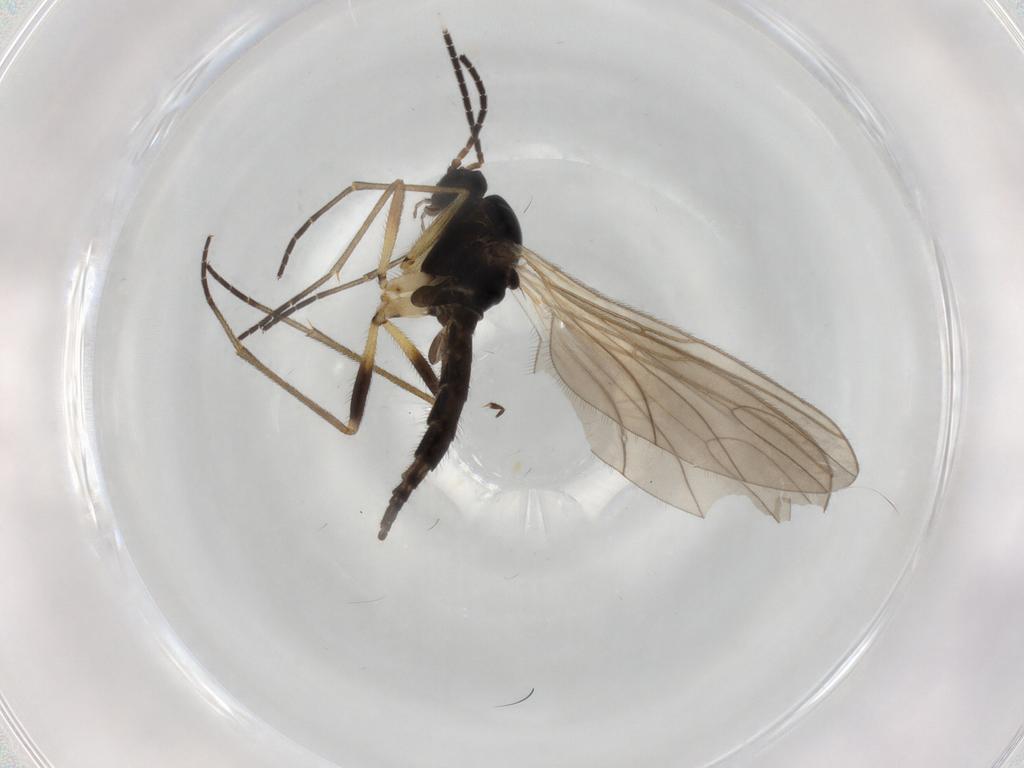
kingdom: Animalia
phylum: Arthropoda
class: Insecta
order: Diptera
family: Sciaridae
